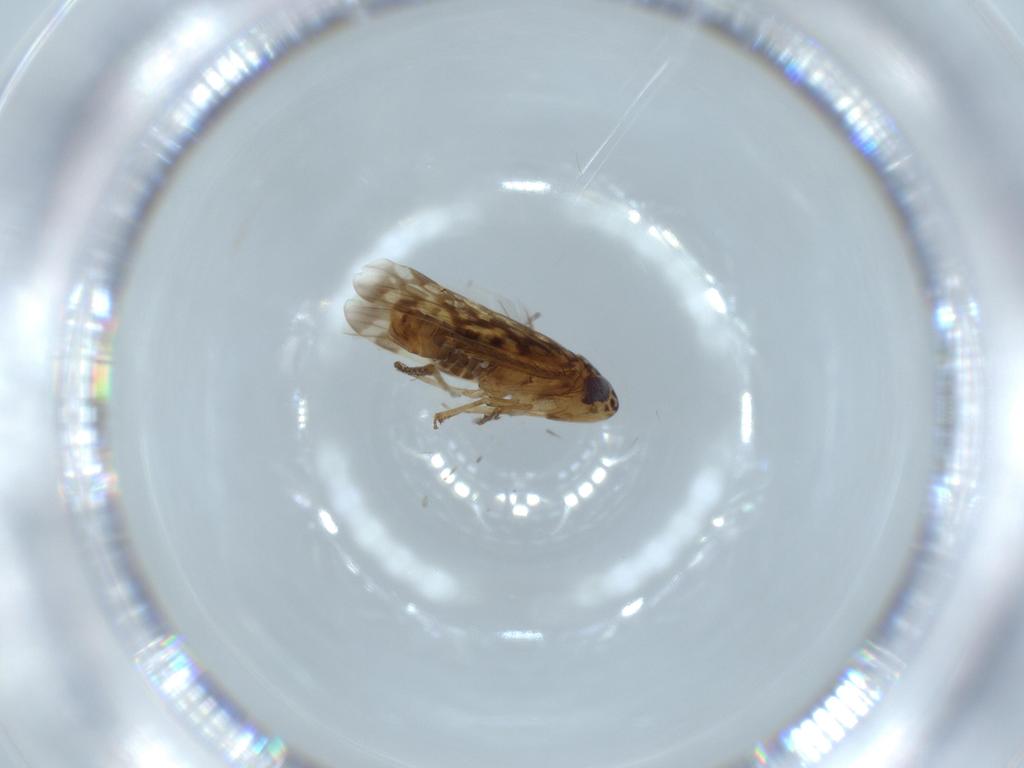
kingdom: Animalia
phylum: Arthropoda
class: Insecta
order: Hemiptera
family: Cicadellidae
